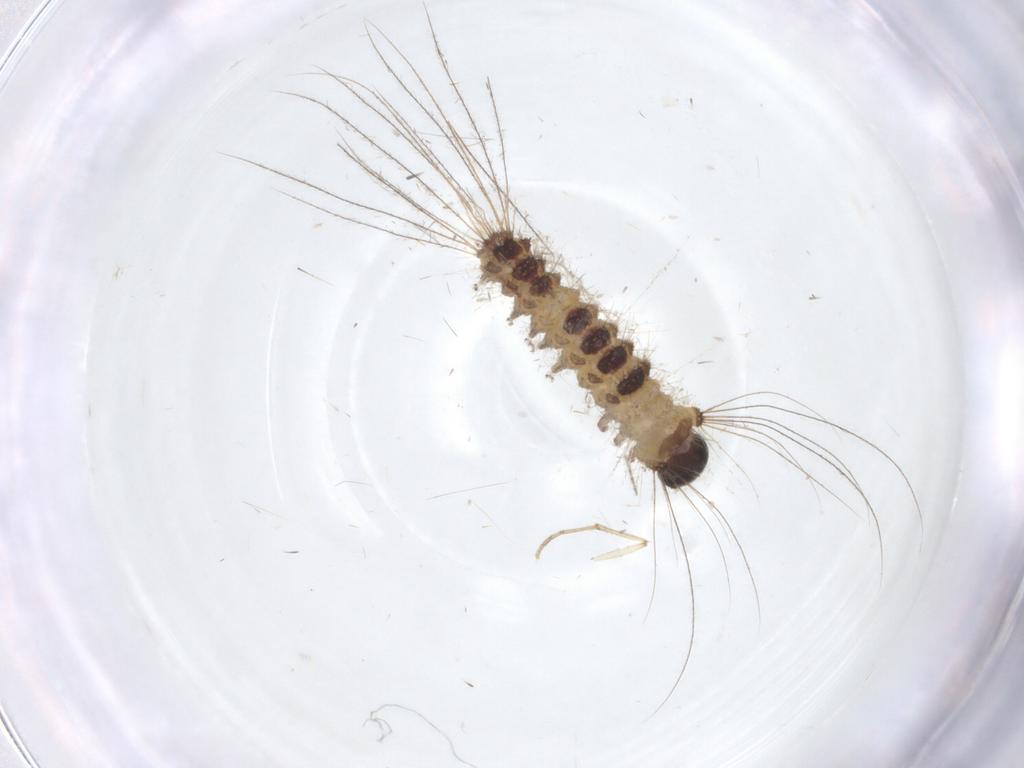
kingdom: Animalia
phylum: Arthropoda
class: Insecta
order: Lepidoptera
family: Erebidae
